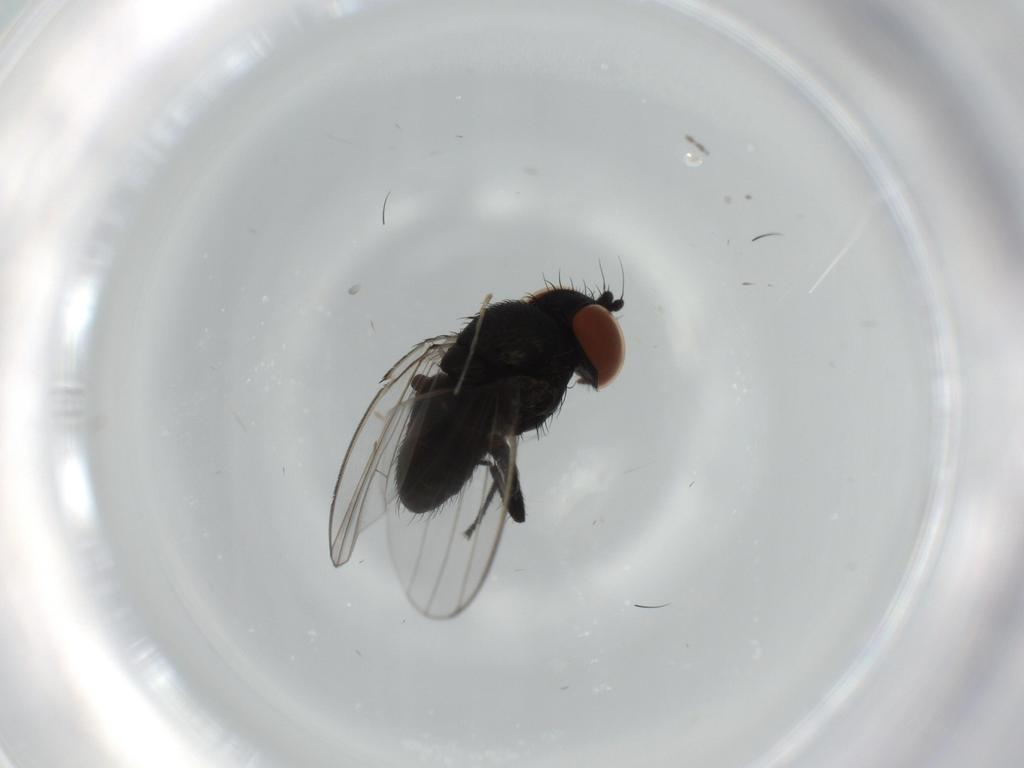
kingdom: Animalia
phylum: Arthropoda
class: Insecta
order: Diptera
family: Milichiidae
